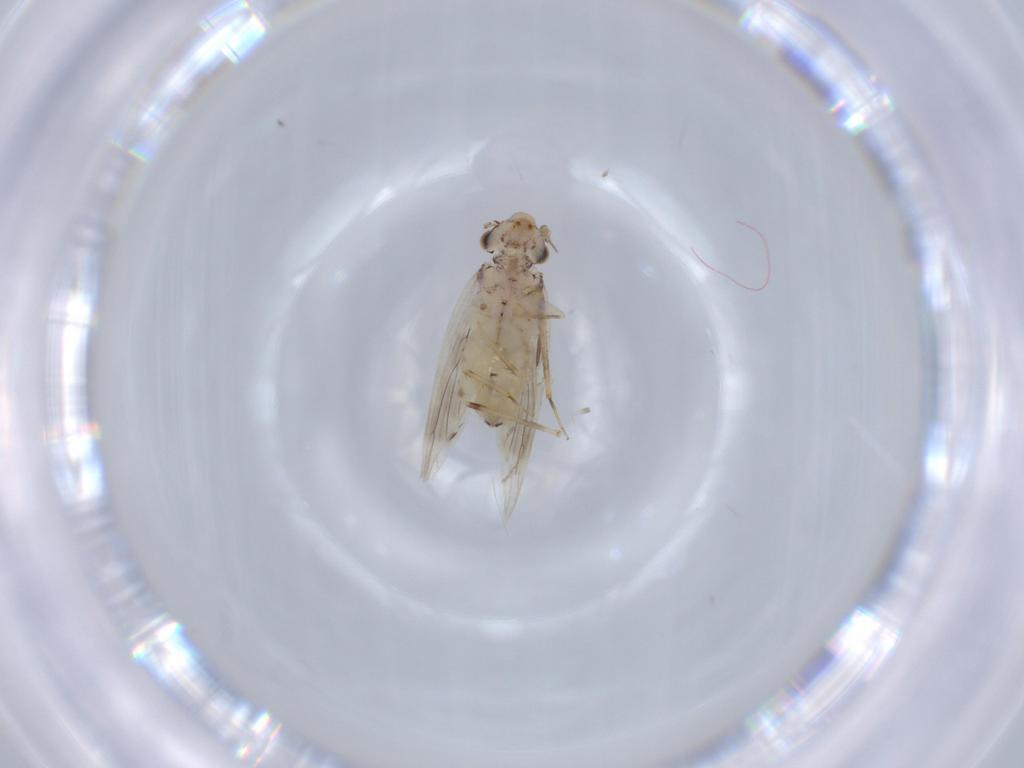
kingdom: Animalia
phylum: Arthropoda
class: Insecta
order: Psocodea
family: Lepidopsocidae
